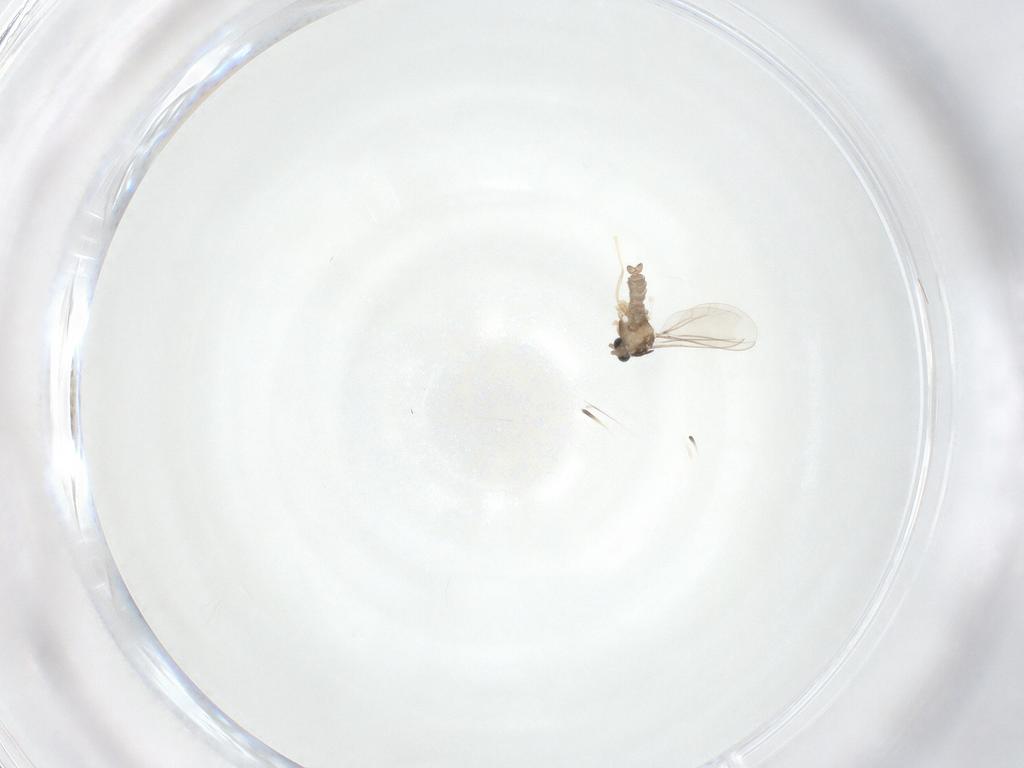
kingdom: Animalia
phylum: Arthropoda
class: Insecta
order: Diptera
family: Cecidomyiidae
